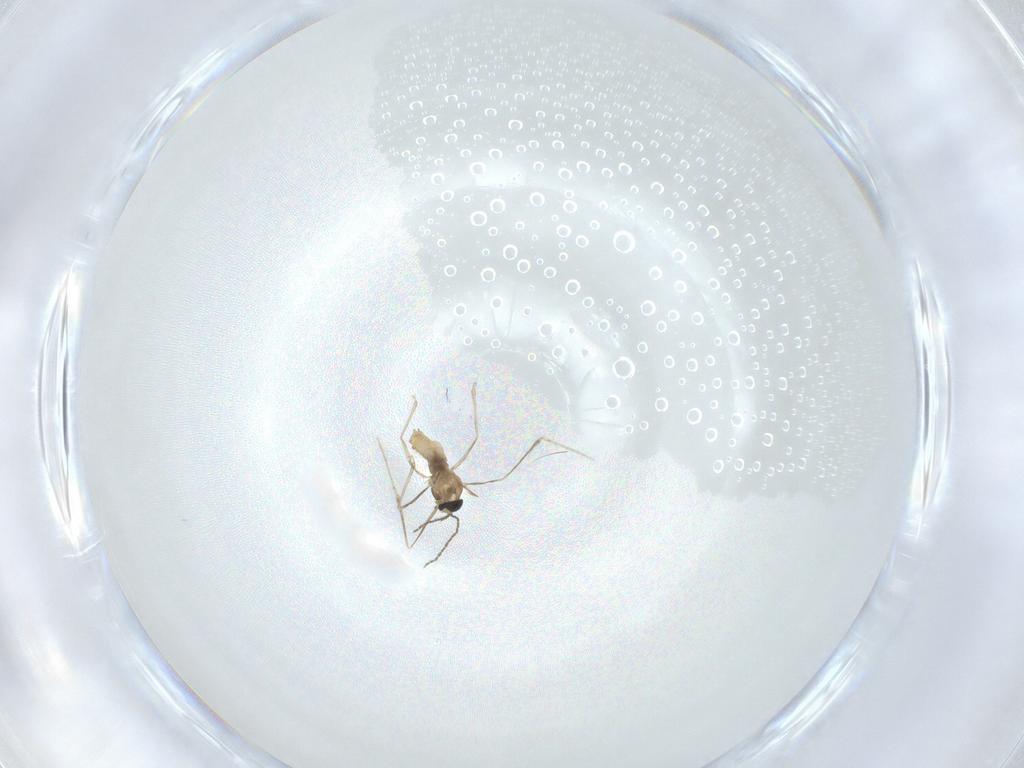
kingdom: Animalia
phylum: Arthropoda
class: Insecta
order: Diptera
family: Cecidomyiidae
